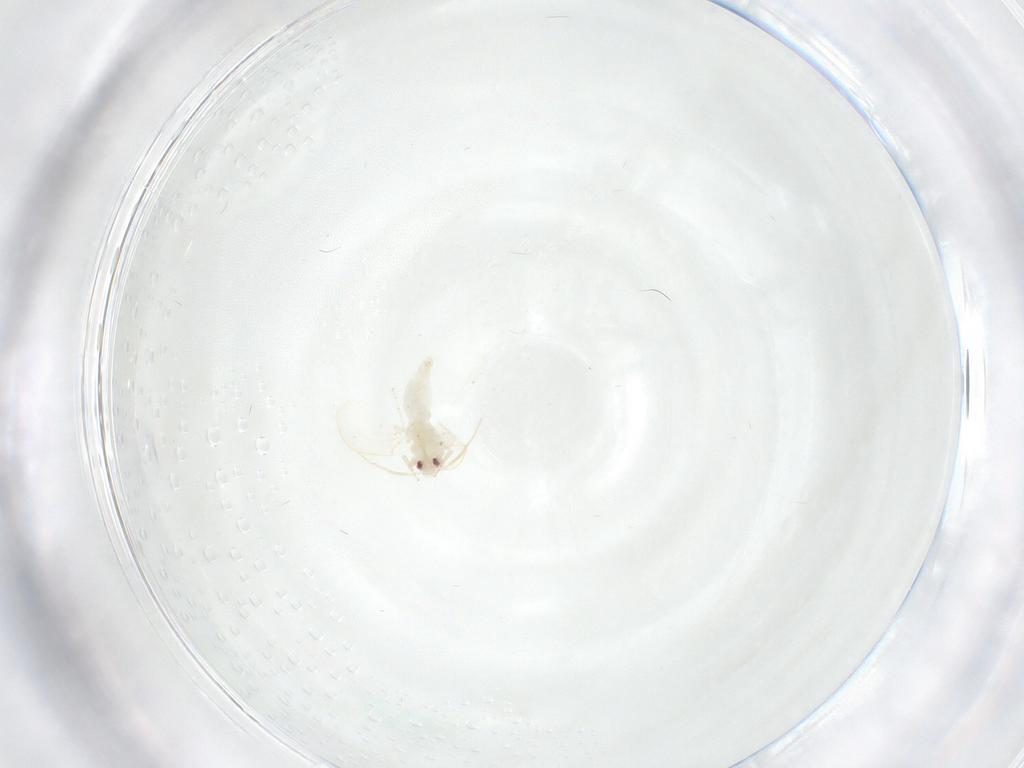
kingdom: Animalia
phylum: Arthropoda
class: Insecta
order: Hemiptera
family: Aleyrodidae
